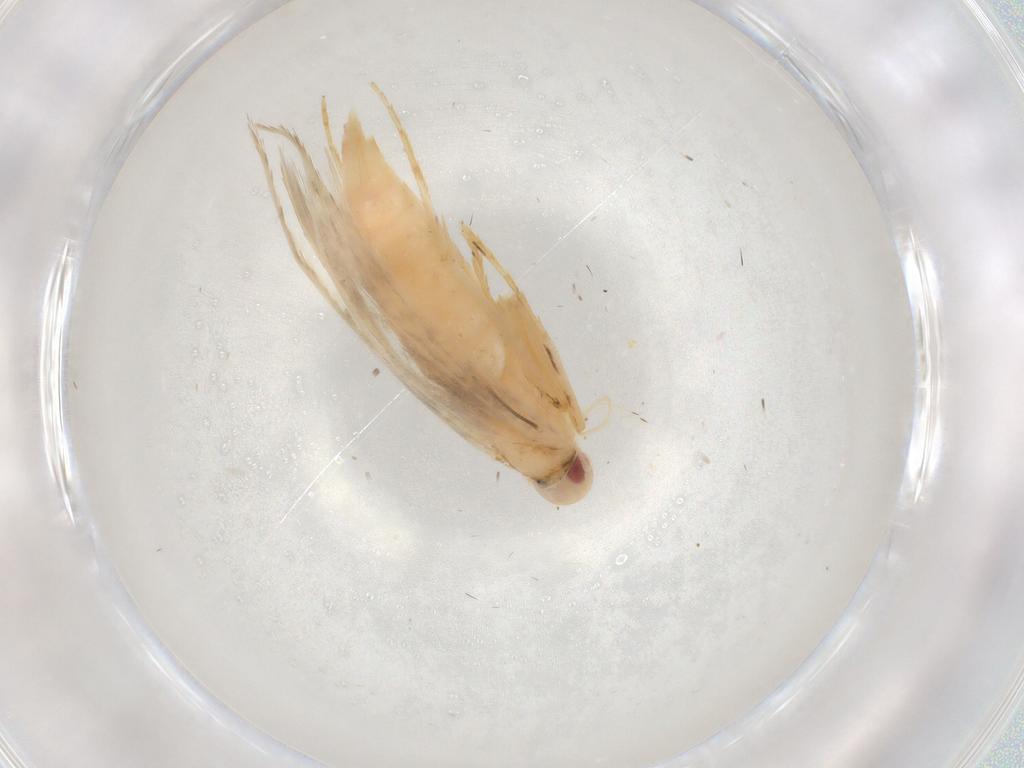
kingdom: Animalia
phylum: Arthropoda
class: Insecta
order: Lepidoptera
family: Cosmopterigidae
